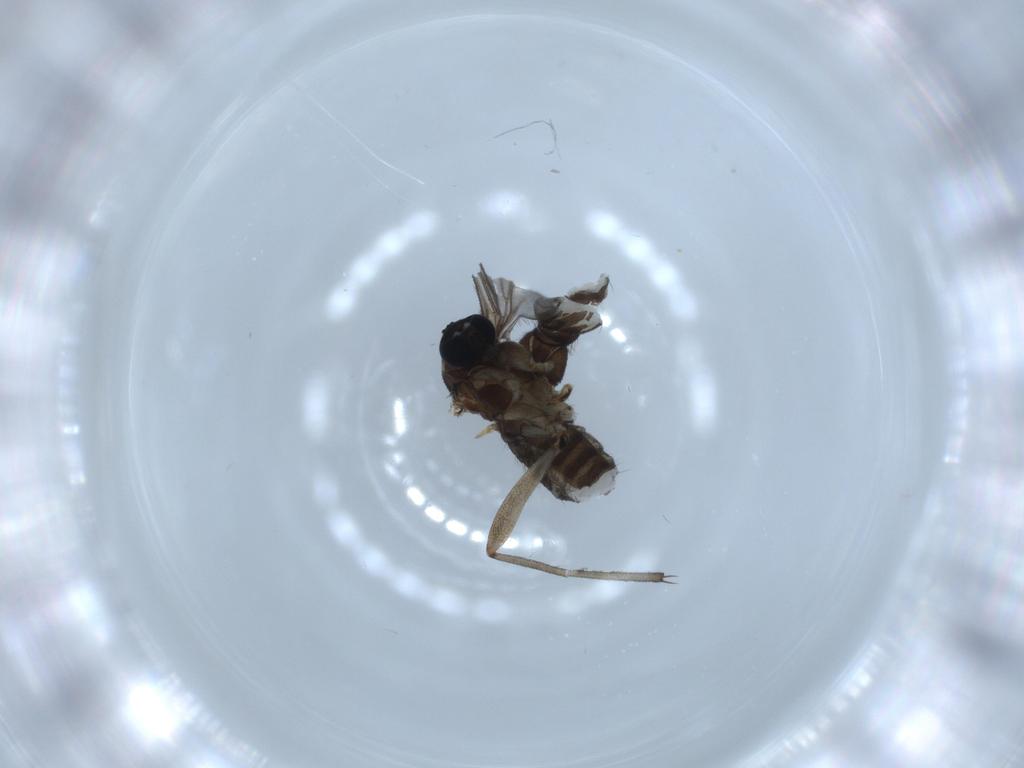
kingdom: Animalia
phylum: Arthropoda
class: Insecta
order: Diptera
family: Sciaridae
